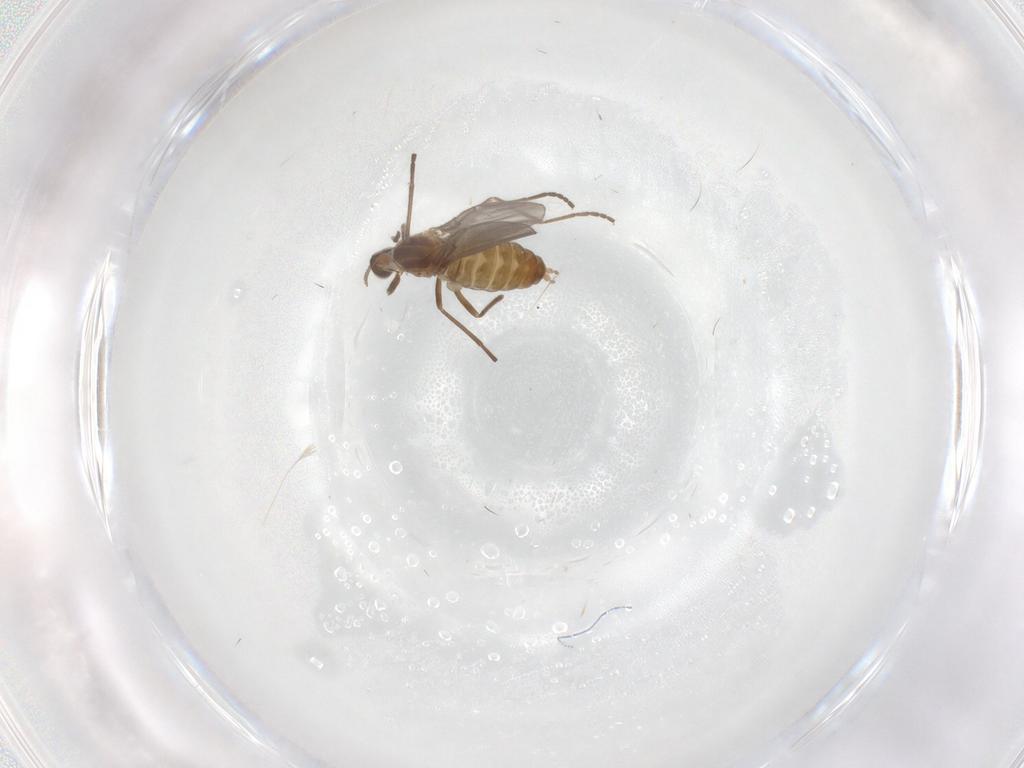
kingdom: Animalia
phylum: Arthropoda
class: Insecta
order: Diptera
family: Cecidomyiidae
